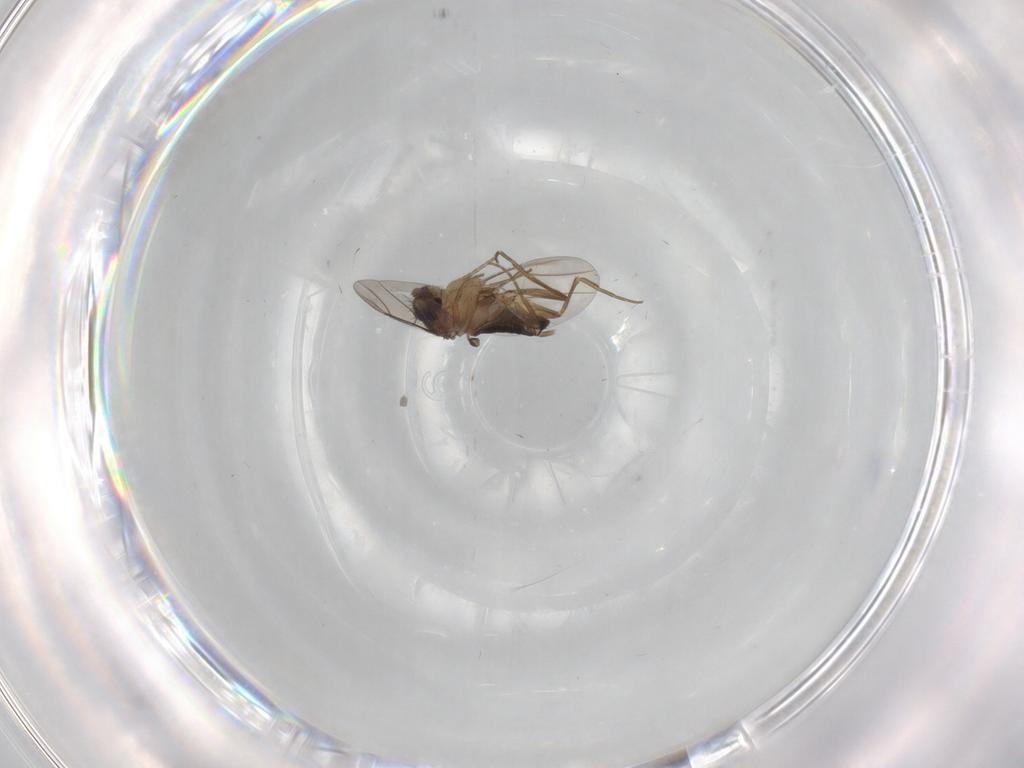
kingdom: Animalia
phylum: Arthropoda
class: Insecta
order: Diptera
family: Phoridae
